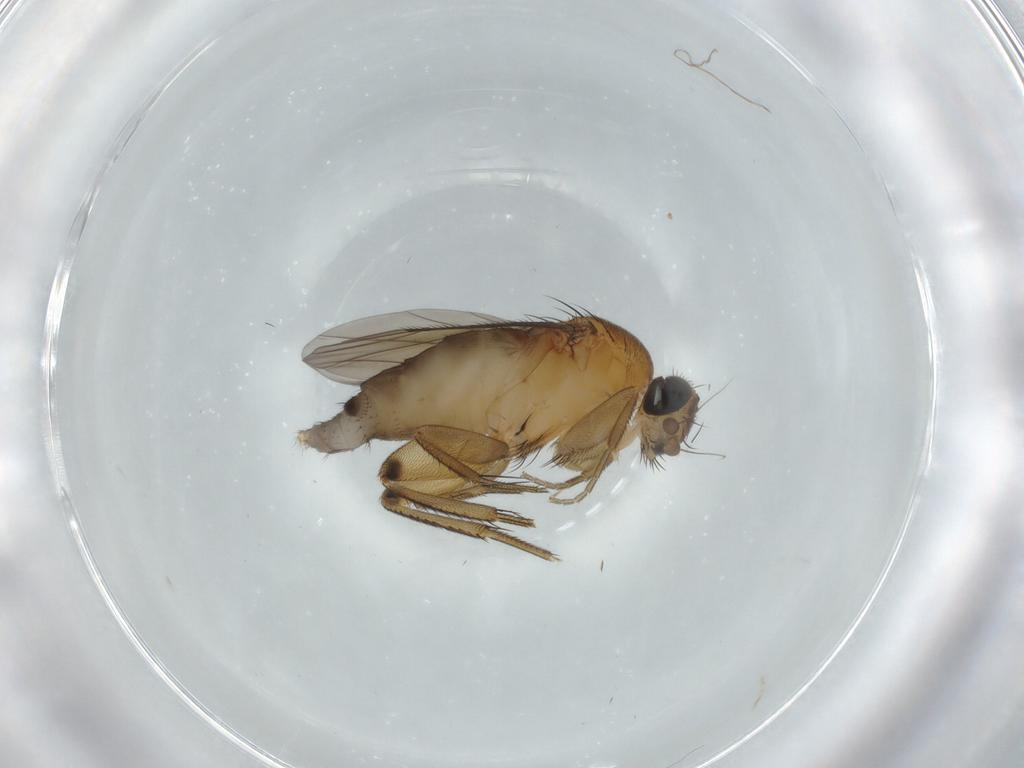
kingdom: Animalia
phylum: Arthropoda
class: Insecta
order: Diptera
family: Phoridae
